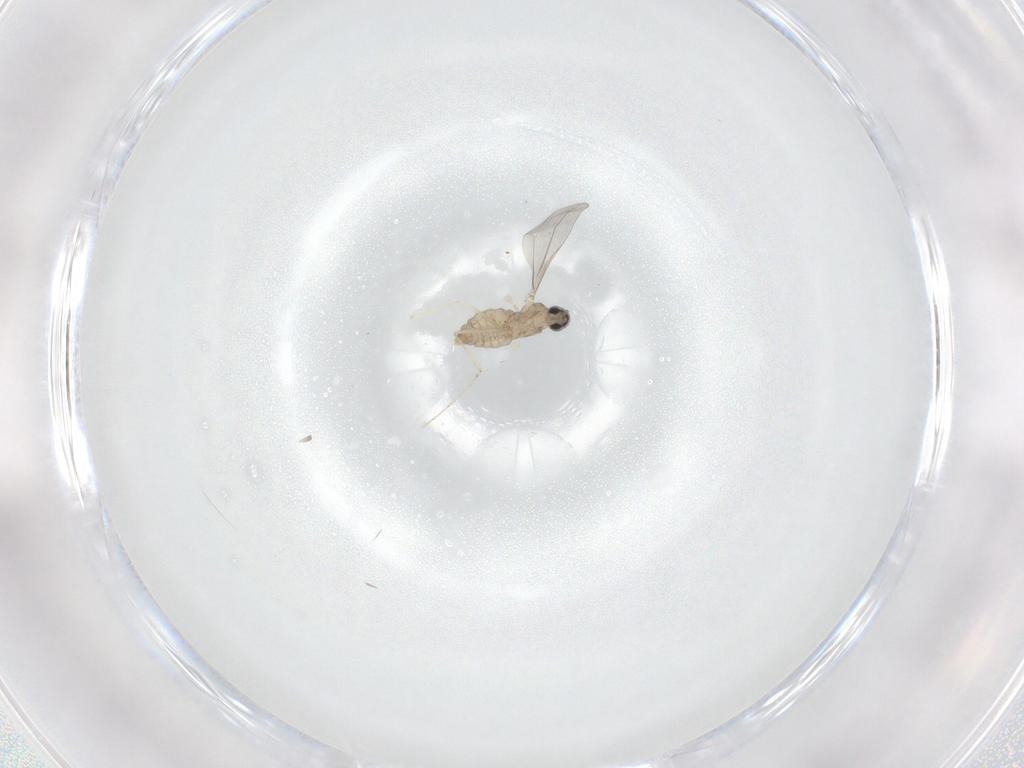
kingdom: Animalia
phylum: Arthropoda
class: Insecta
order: Diptera
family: Cecidomyiidae
